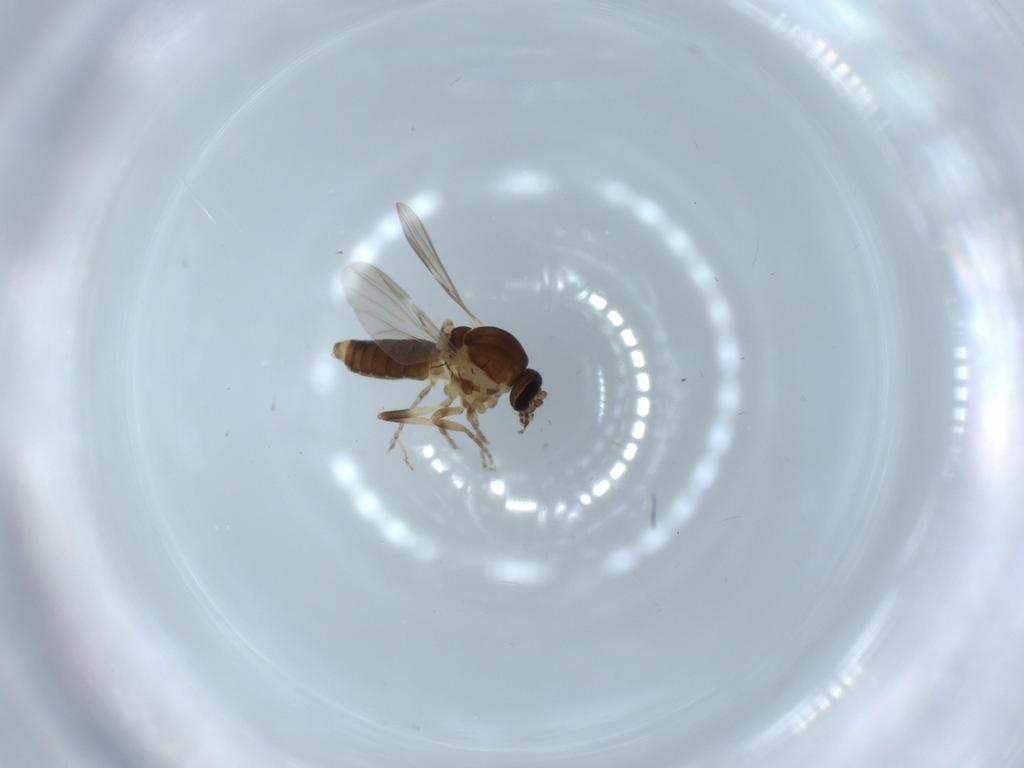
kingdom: Animalia
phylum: Arthropoda
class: Insecta
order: Diptera
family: Ceratopogonidae
